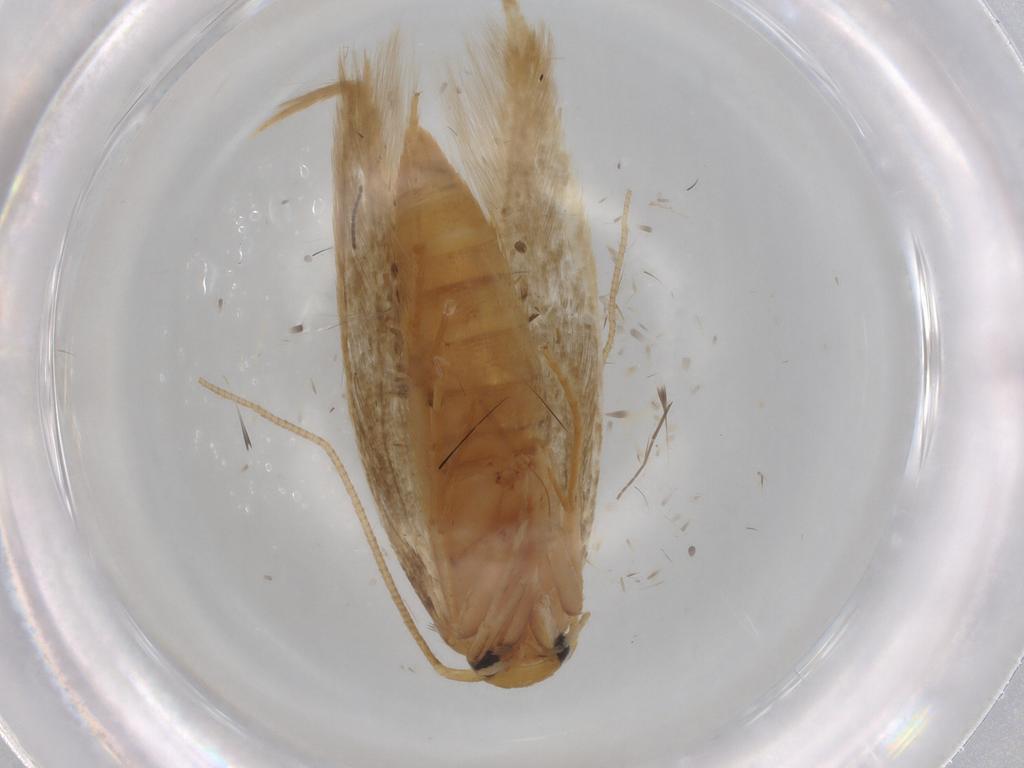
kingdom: Animalia
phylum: Arthropoda
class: Insecta
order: Lepidoptera
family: Elachistidae
